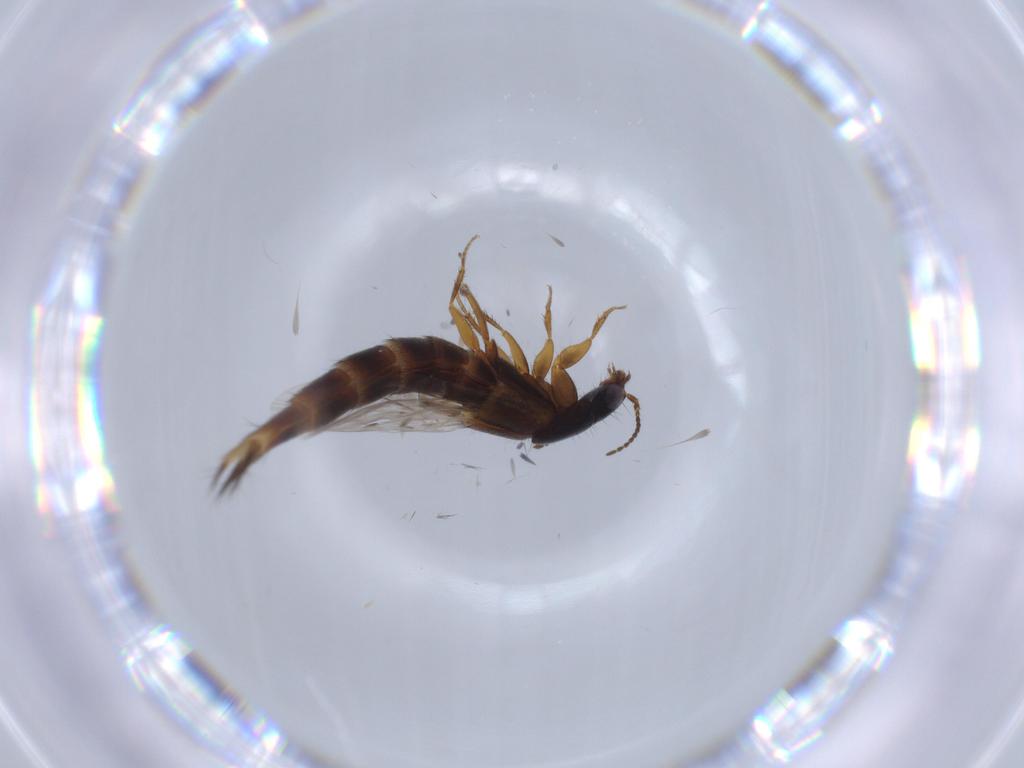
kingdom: Animalia
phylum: Arthropoda
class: Insecta
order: Coleoptera
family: Staphylinidae
